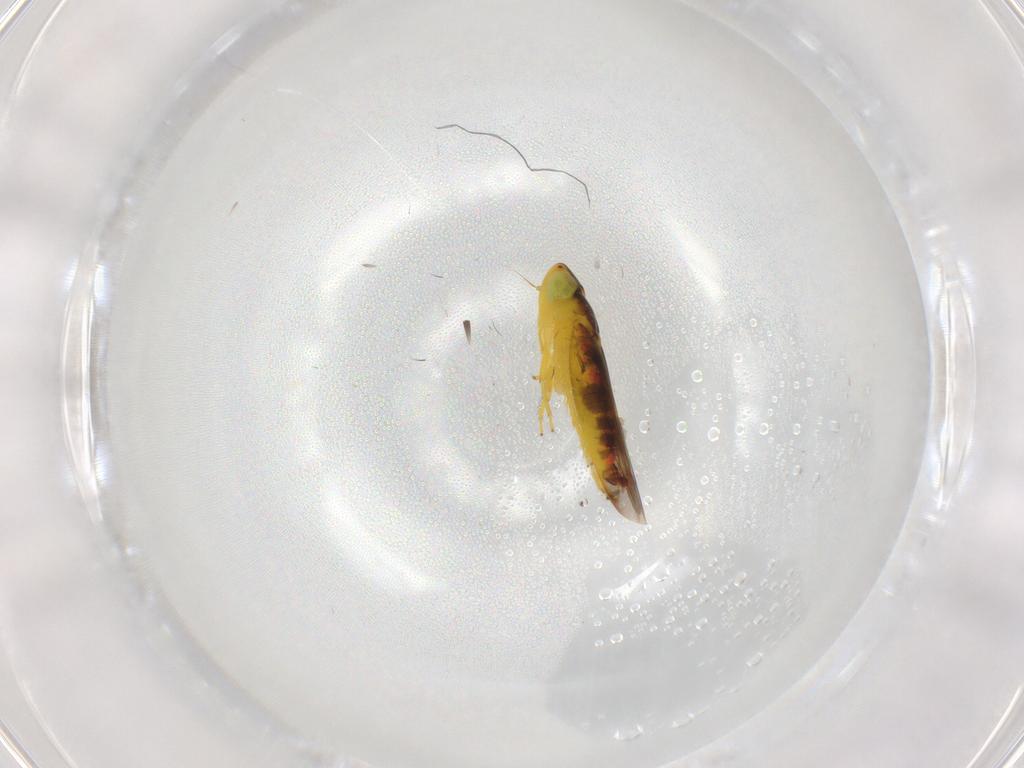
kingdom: Animalia
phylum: Arthropoda
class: Insecta
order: Hemiptera
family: Cicadellidae
